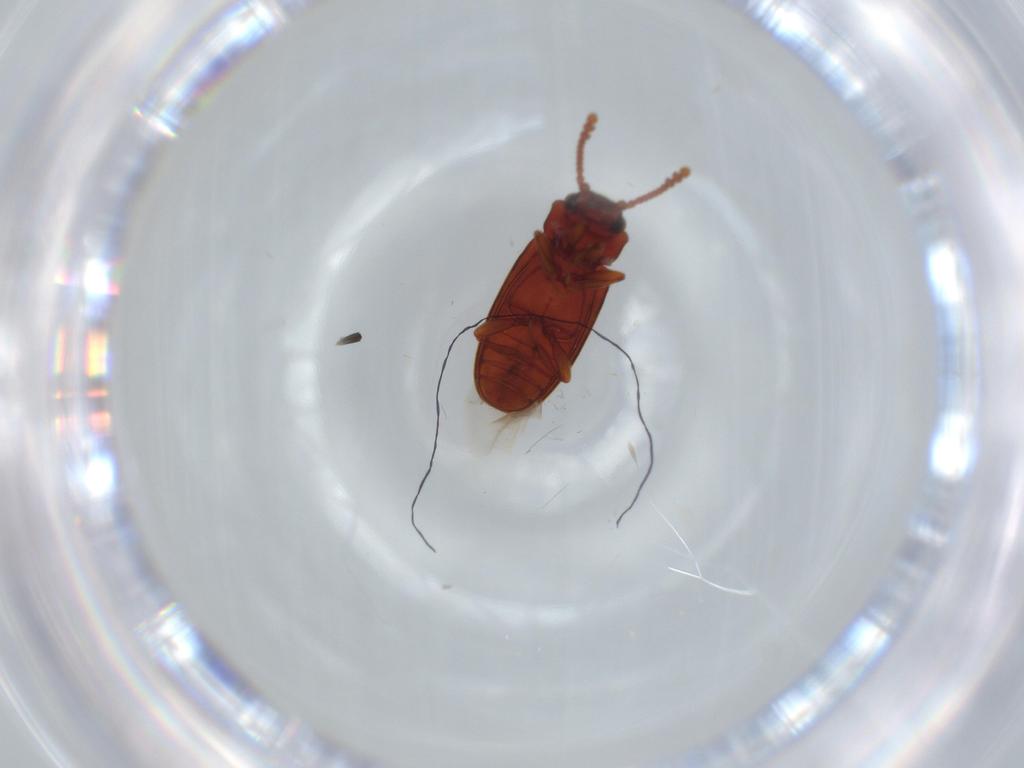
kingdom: Animalia
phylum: Arthropoda
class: Insecta
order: Coleoptera
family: Erotylidae
